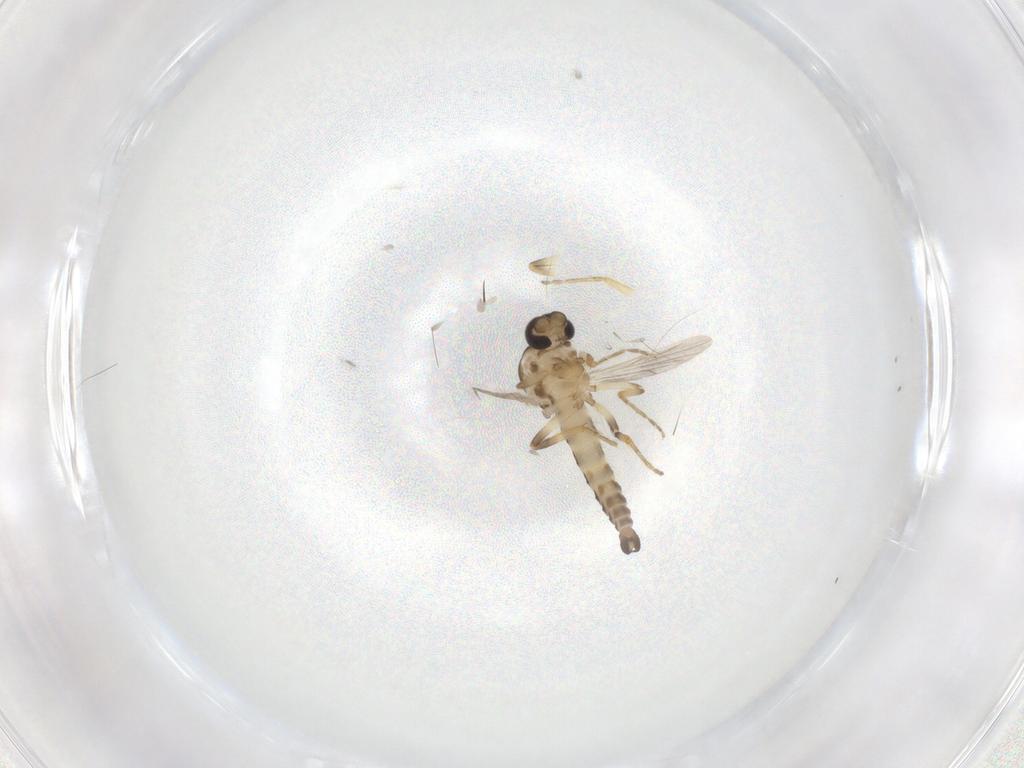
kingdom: Animalia
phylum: Arthropoda
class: Insecta
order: Diptera
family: Ceratopogonidae
